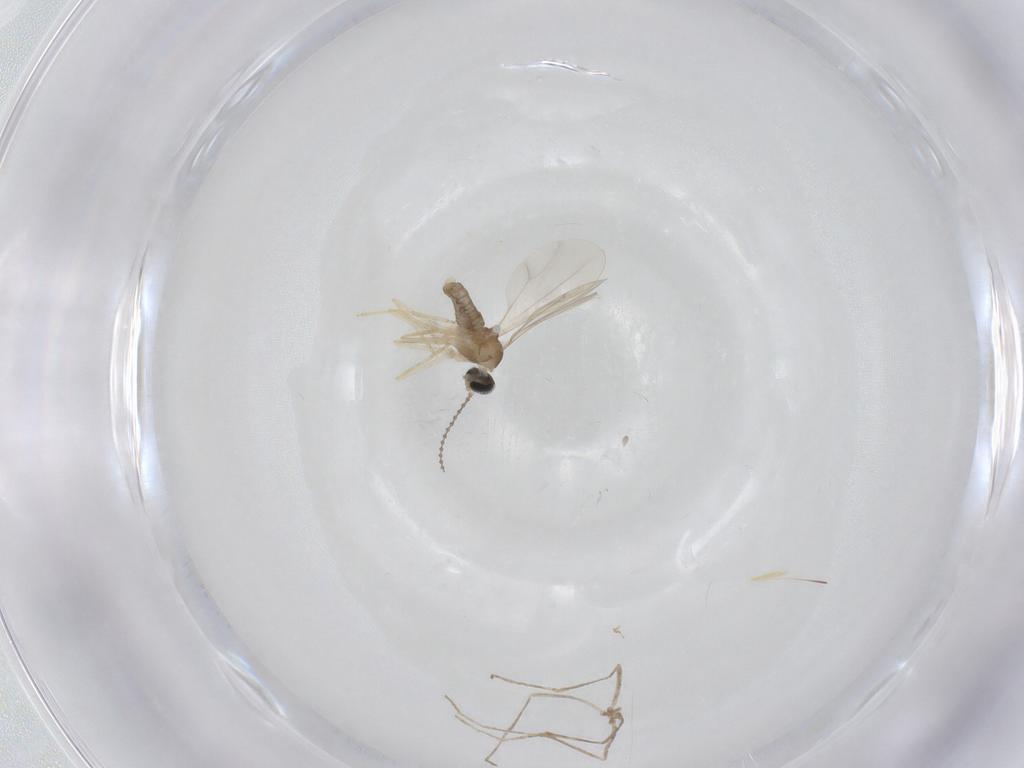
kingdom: Animalia
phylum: Arthropoda
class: Insecta
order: Diptera
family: Cecidomyiidae
